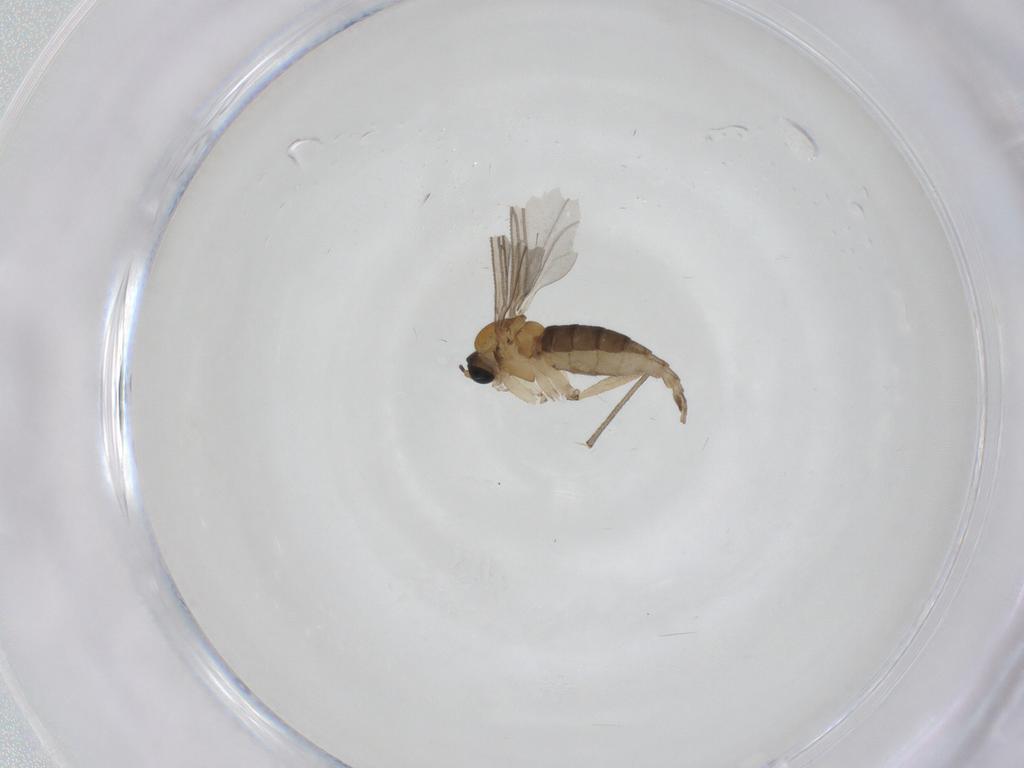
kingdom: Animalia
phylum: Arthropoda
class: Insecta
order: Diptera
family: Sciaridae
